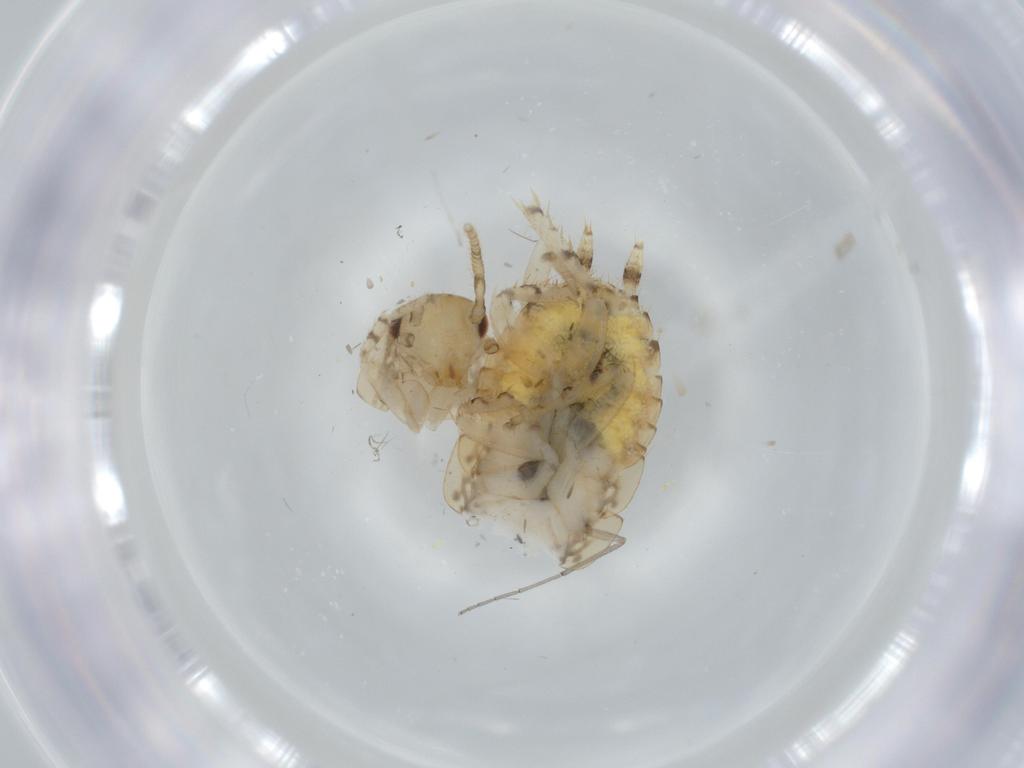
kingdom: Animalia
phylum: Arthropoda
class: Insecta
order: Blattodea
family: Ectobiidae
